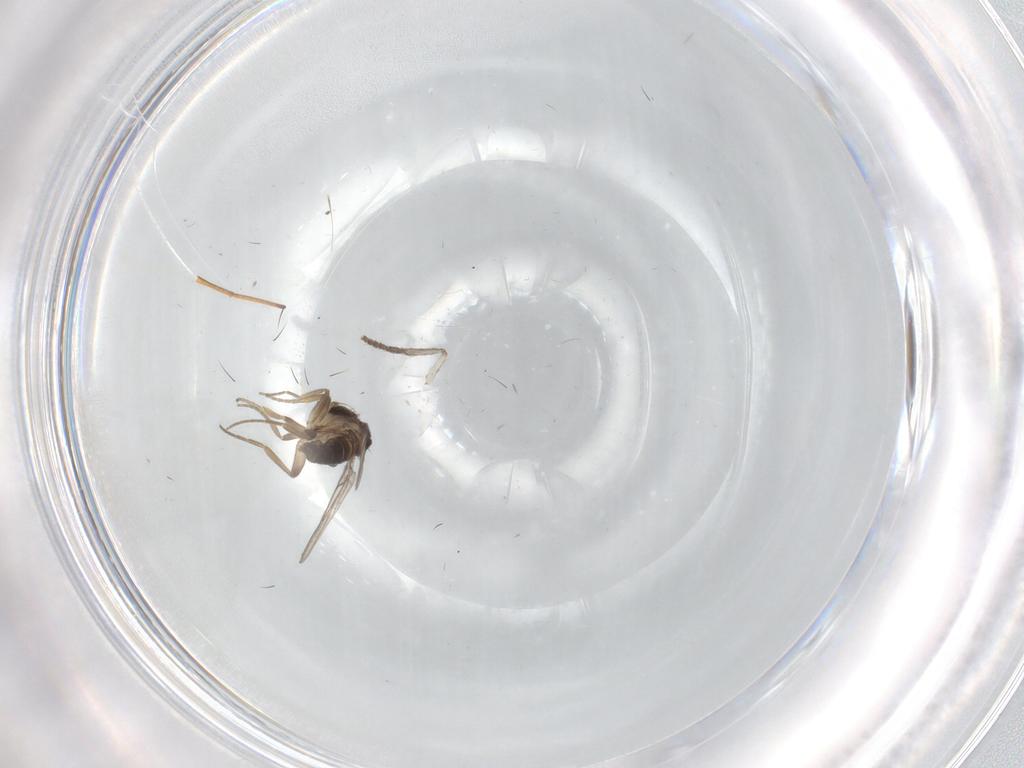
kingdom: Animalia
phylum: Arthropoda
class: Insecta
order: Diptera
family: Phoridae
